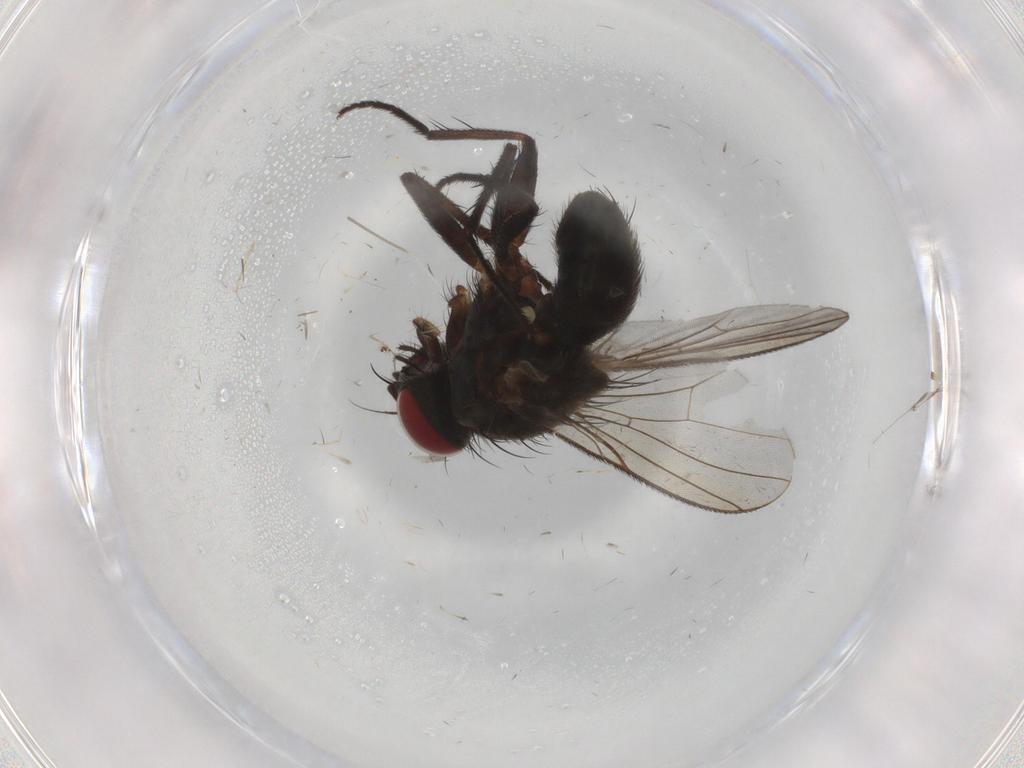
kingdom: Animalia
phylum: Arthropoda
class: Insecta
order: Diptera
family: Muscidae
